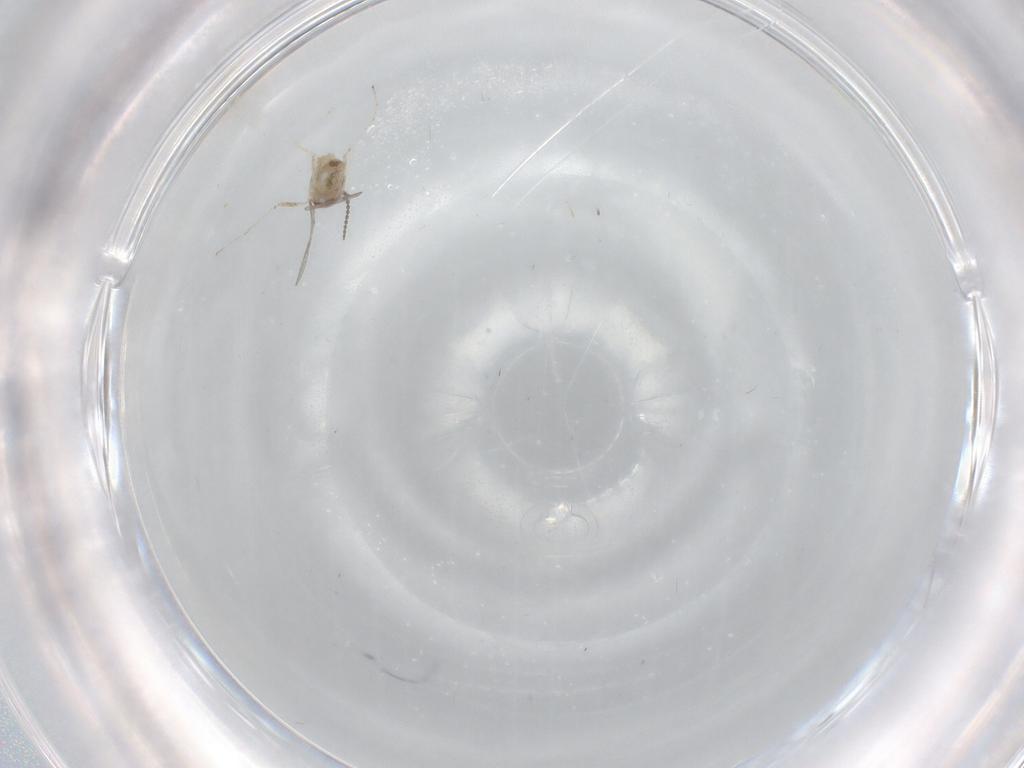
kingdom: Animalia
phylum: Arthropoda
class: Insecta
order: Diptera
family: Cecidomyiidae
